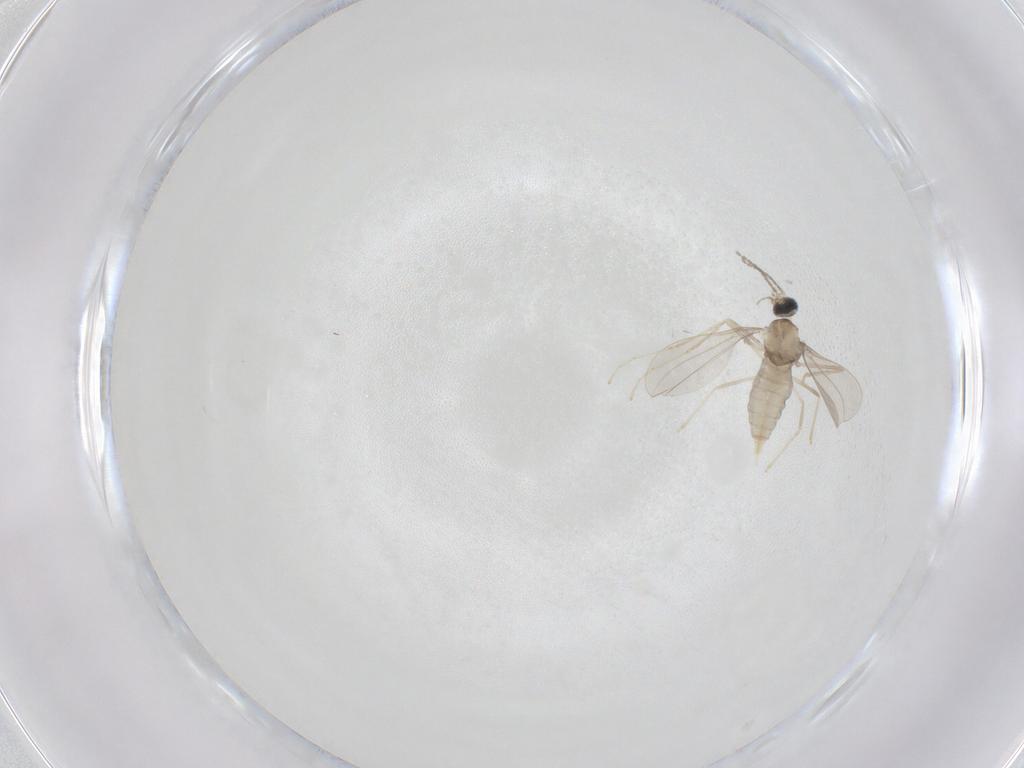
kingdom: Animalia
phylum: Arthropoda
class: Insecta
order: Diptera
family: Cecidomyiidae
